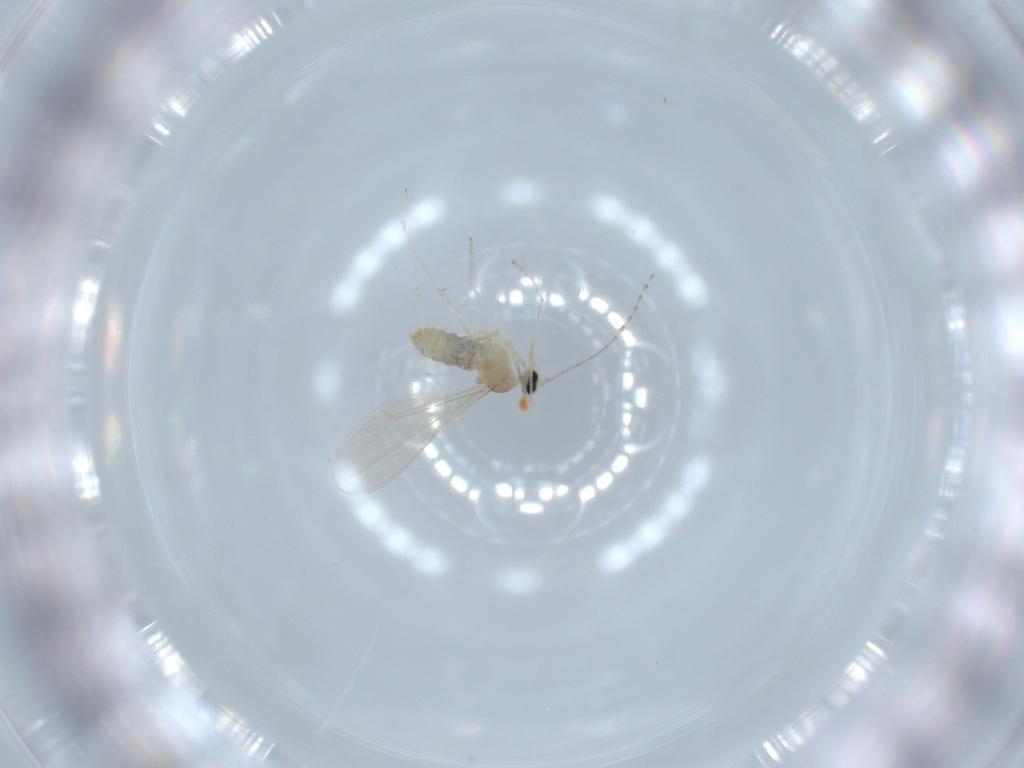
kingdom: Animalia
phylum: Arthropoda
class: Insecta
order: Diptera
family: Cecidomyiidae
